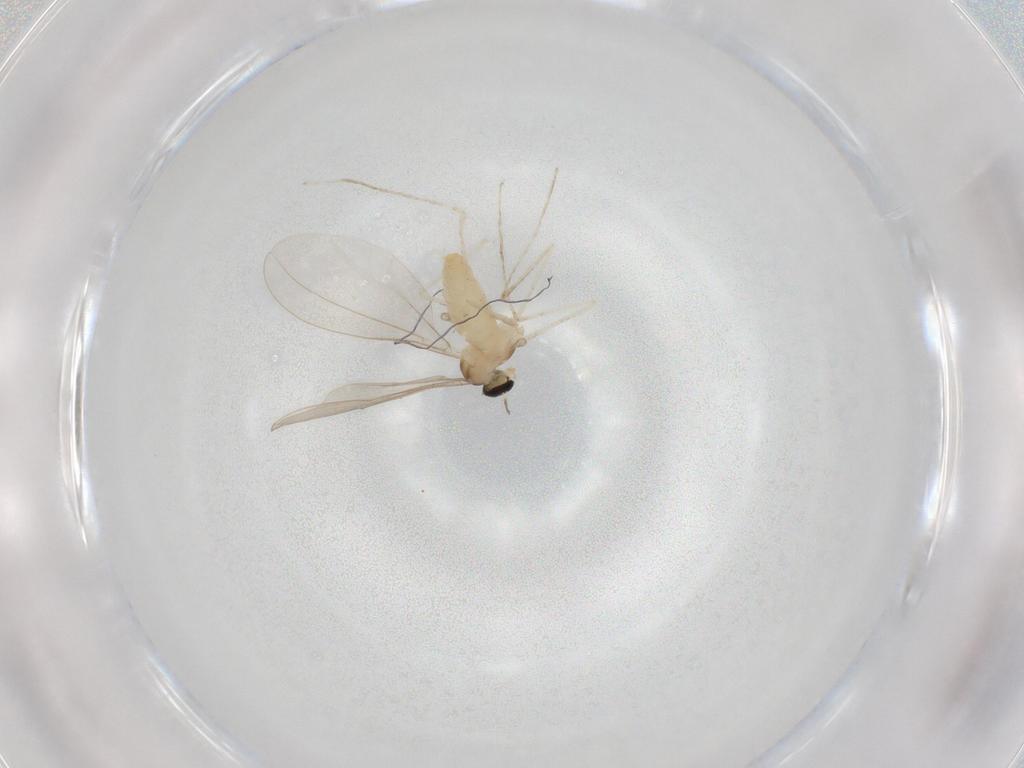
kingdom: Animalia
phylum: Arthropoda
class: Insecta
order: Diptera
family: Cecidomyiidae
